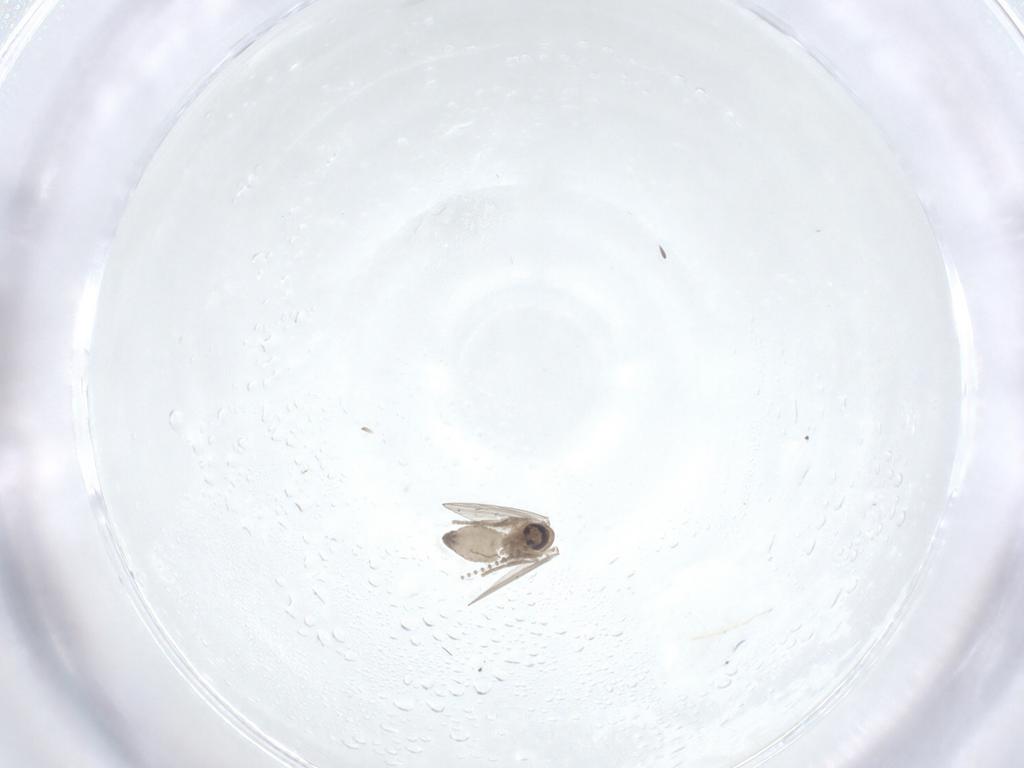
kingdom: Animalia
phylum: Arthropoda
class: Insecta
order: Diptera
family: Psychodidae
